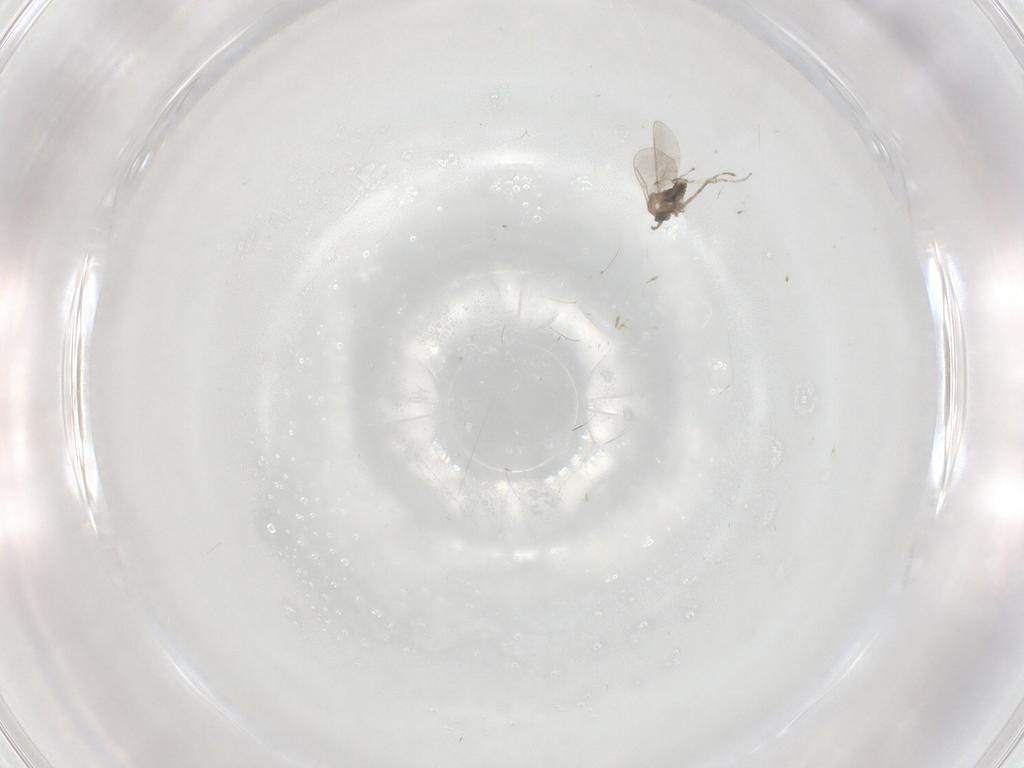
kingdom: Animalia
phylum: Arthropoda
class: Insecta
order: Diptera
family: Cecidomyiidae
